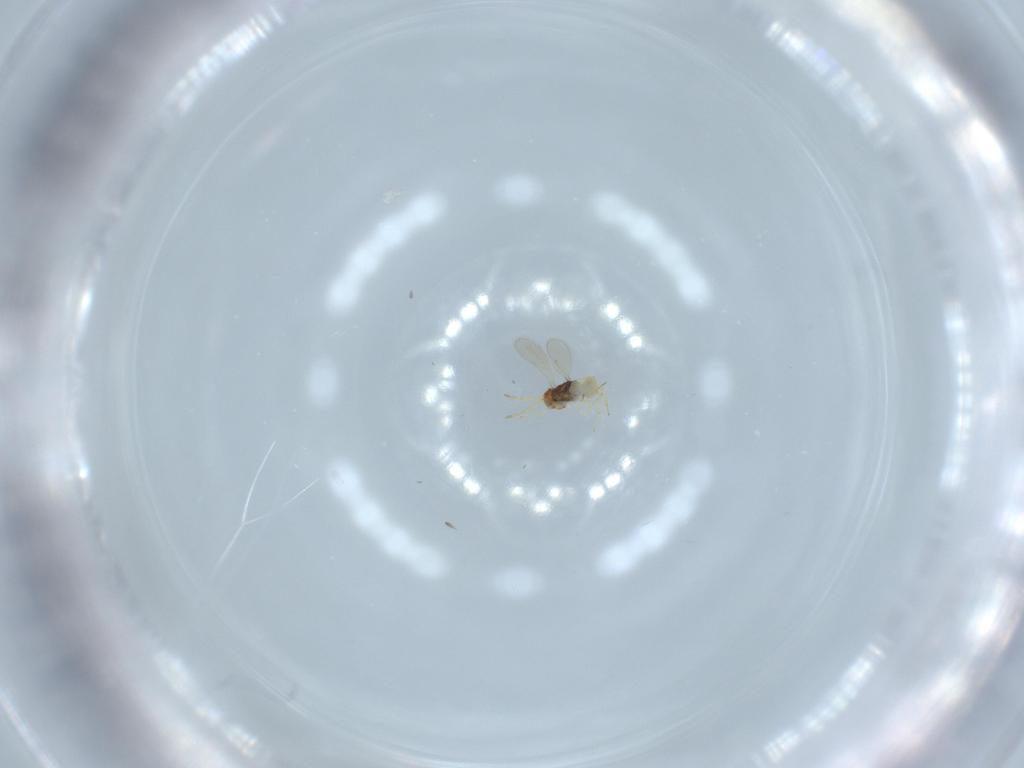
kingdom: Animalia
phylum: Arthropoda
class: Insecta
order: Hymenoptera
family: Aphelinidae
